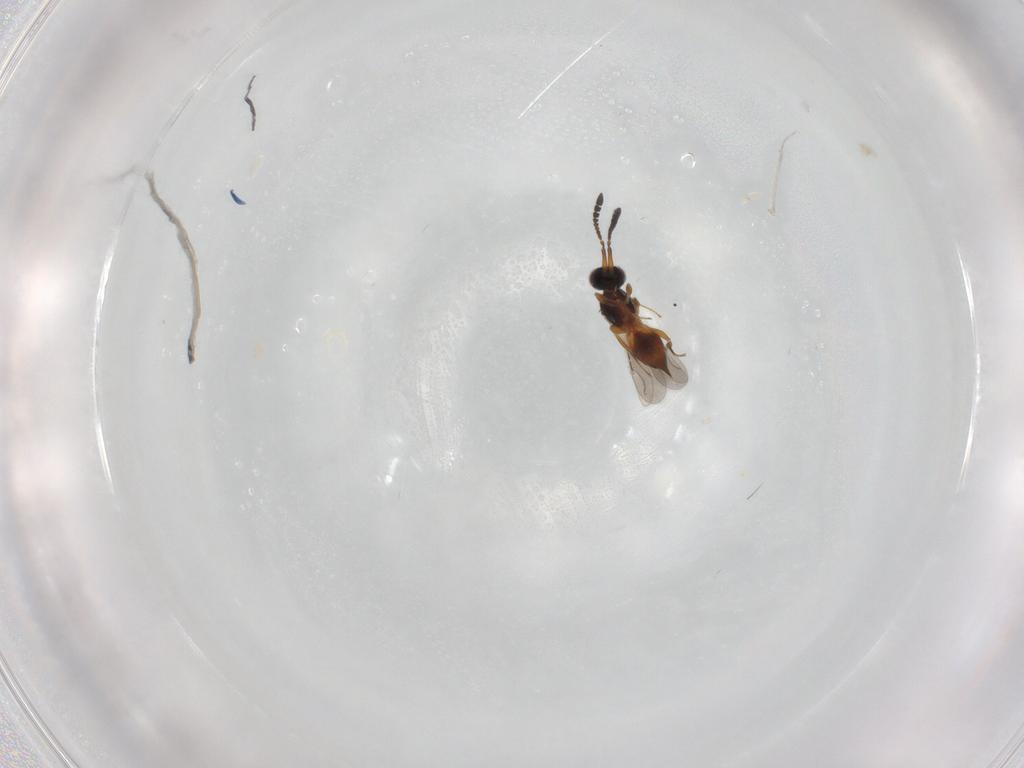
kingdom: Animalia
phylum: Arthropoda
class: Insecta
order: Hymenoptera
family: Ceraphronidae
